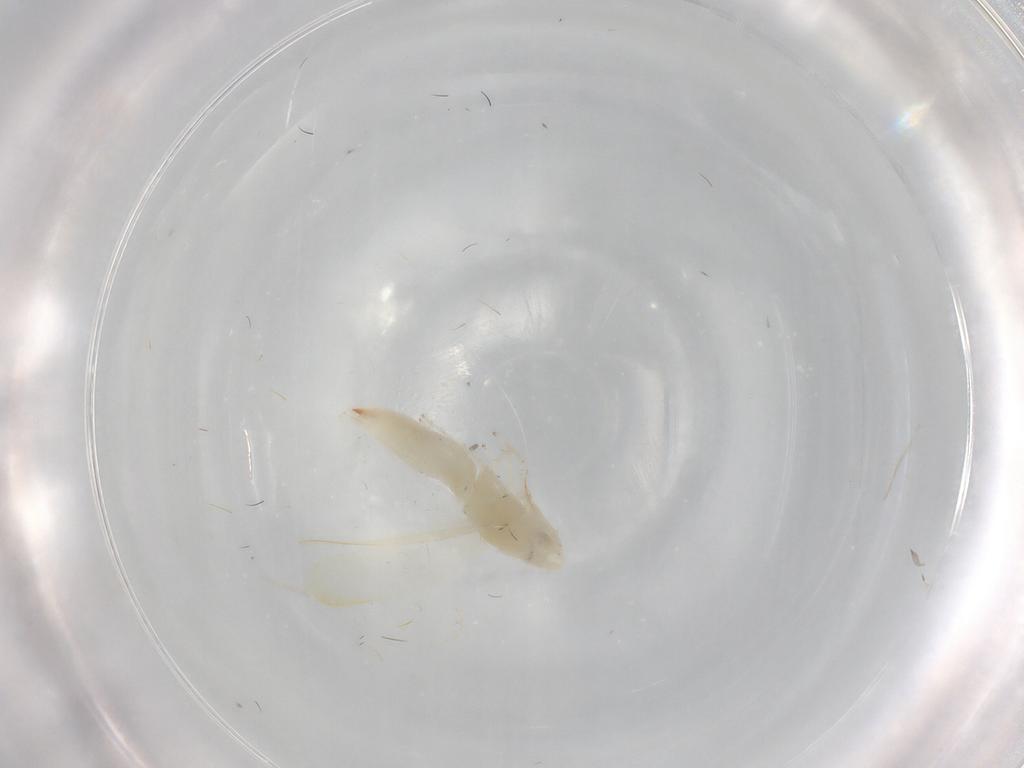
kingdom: Animalia
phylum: Arthropoda
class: Insecta
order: Hemiptera
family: Cicadellidae
